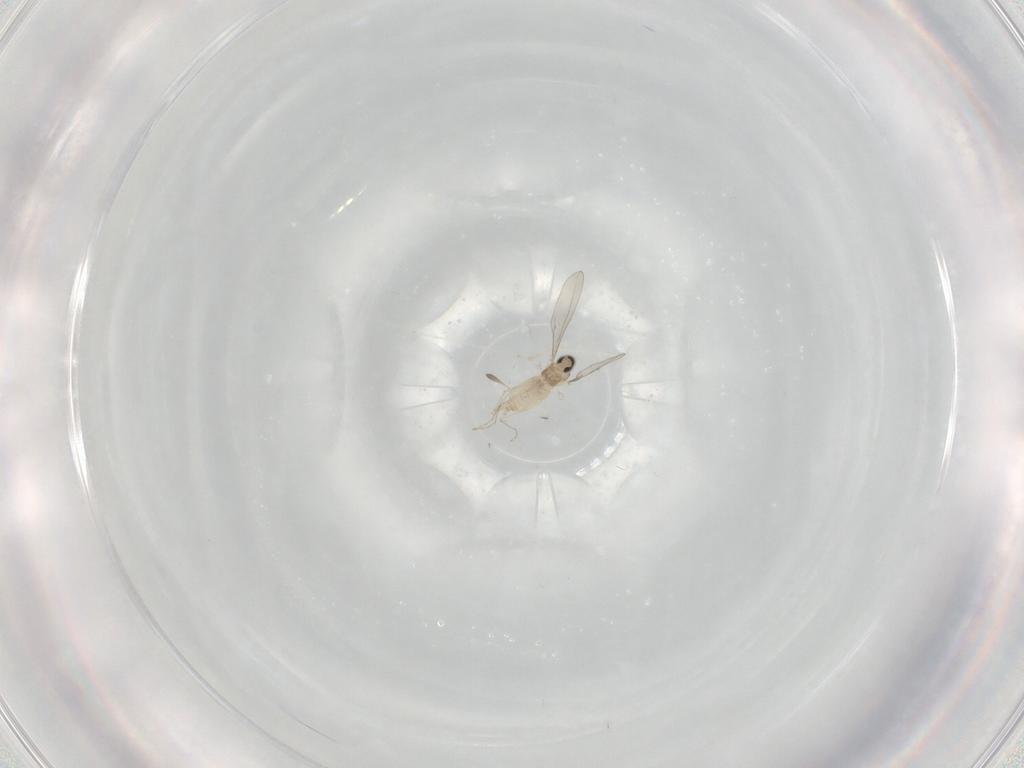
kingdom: Animalia
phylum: Arthropoda
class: Insecta
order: Diptera
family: Cecidomyiidae
